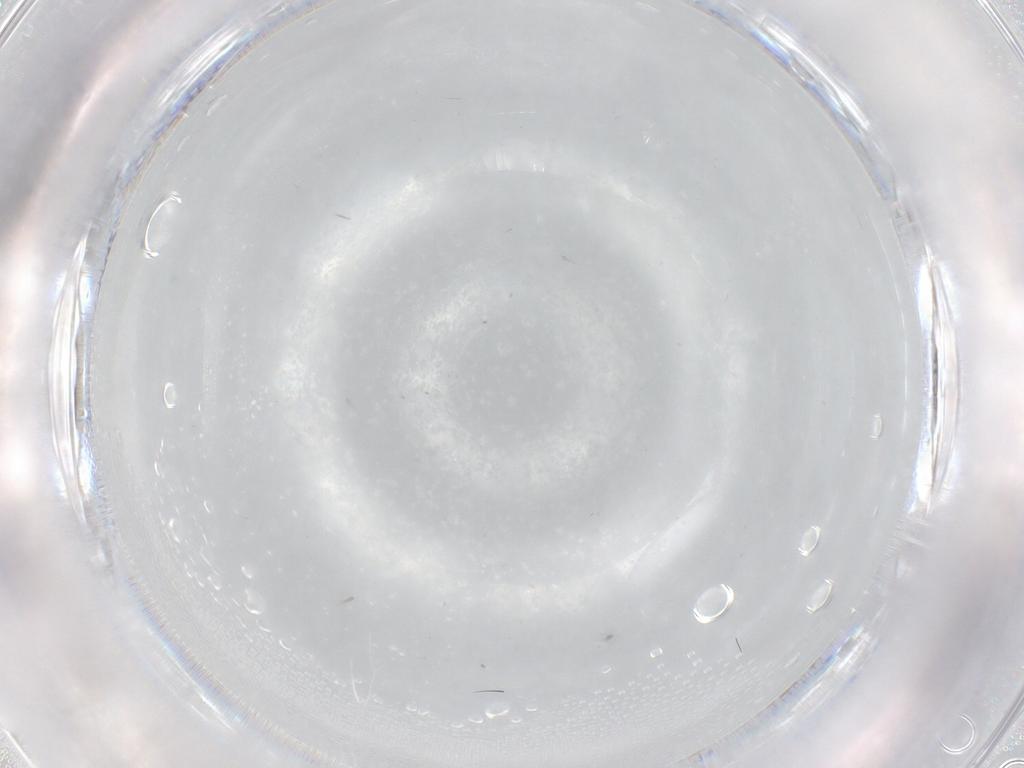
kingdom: Animalia
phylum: Arthropoda
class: Insecta
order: Diptera
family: Cecidomyiidae
